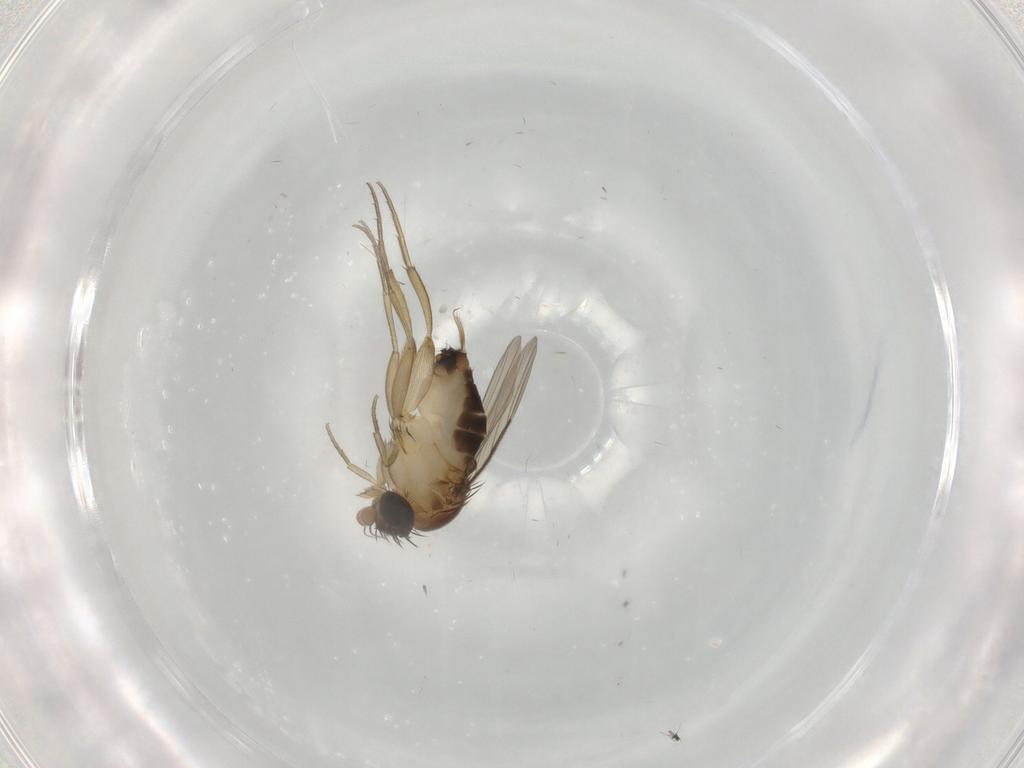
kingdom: Animalia
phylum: Arthropoda
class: Insecta
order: Diptera
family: Phoridae
